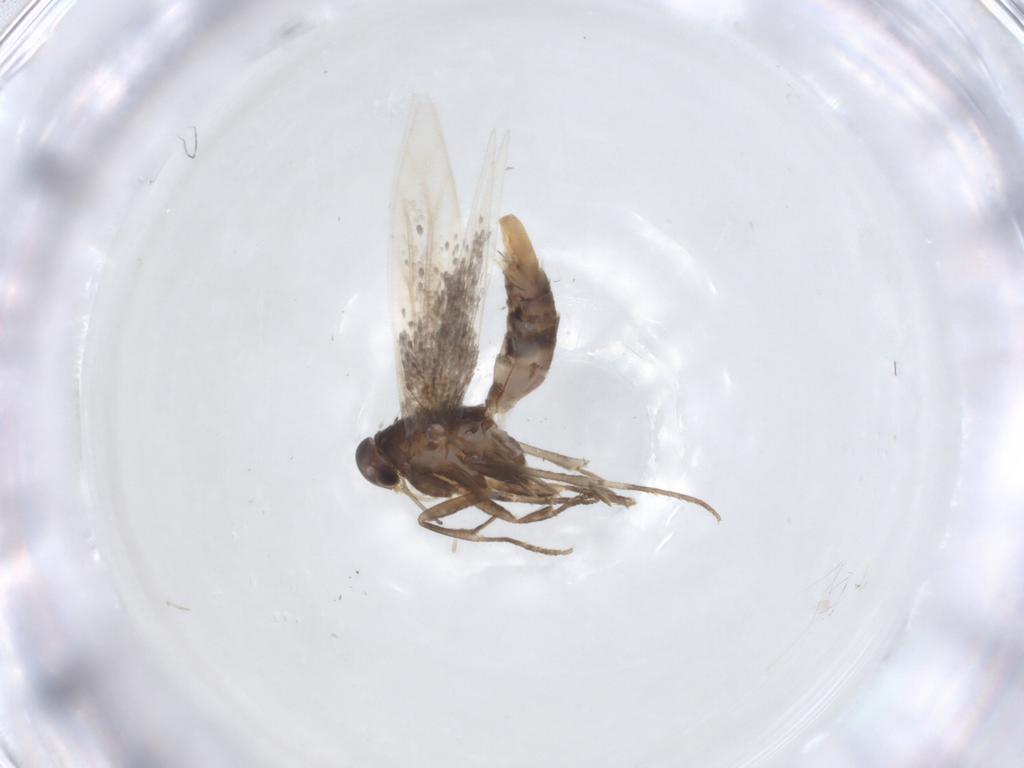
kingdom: Animalia
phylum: Arthropoda
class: Insecta
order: Lepidoptera
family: Elachistidae
